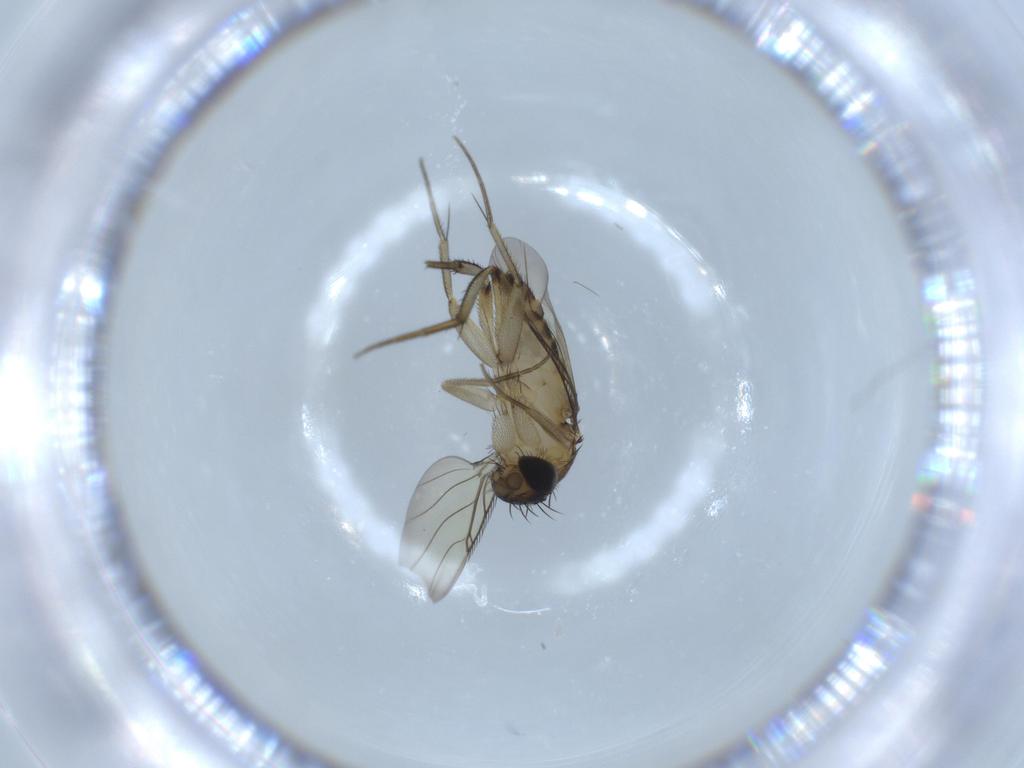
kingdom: Animalia
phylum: Arthropoda
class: Insecta
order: Diptera
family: Phoridae
